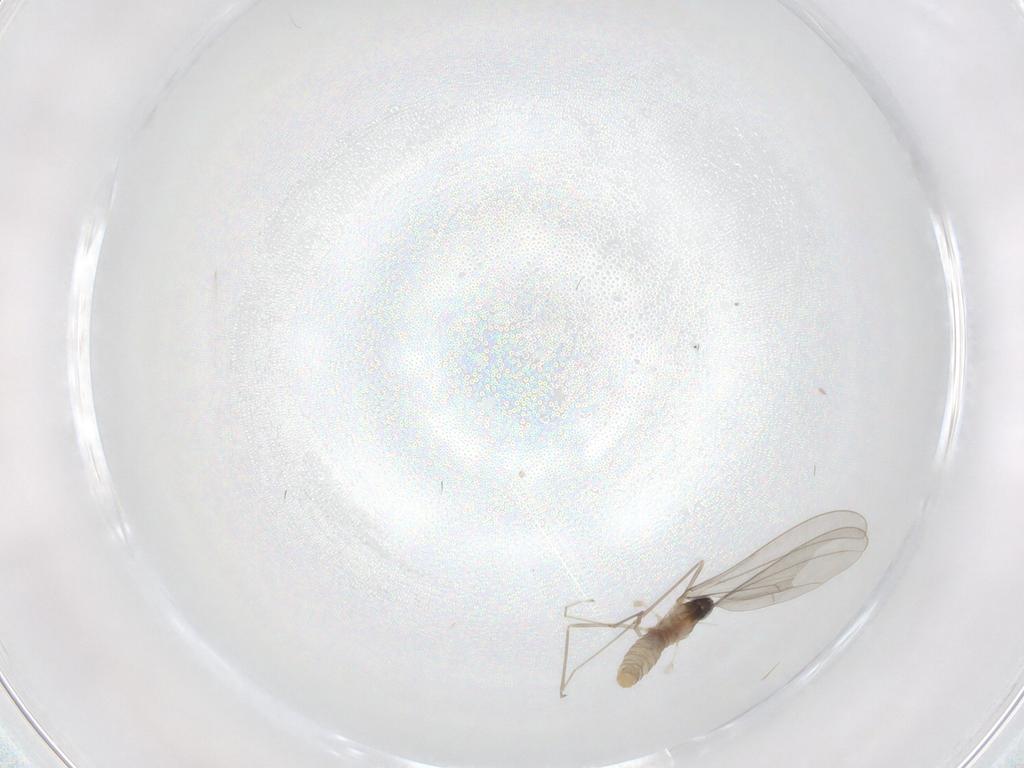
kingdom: Animalia
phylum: Arthropoda
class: Insecta
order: Diptera
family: Cecidomyiidae
